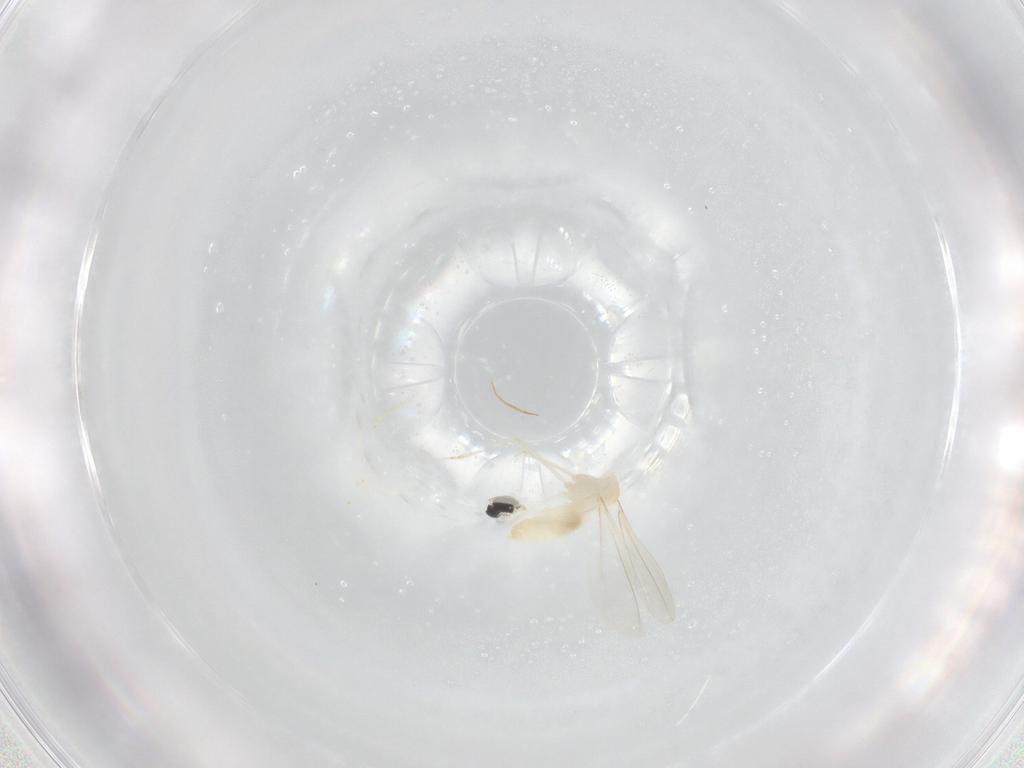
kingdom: Animalia
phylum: Arthropoda
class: Insecta
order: Diptera
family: Cecidomyiidae
